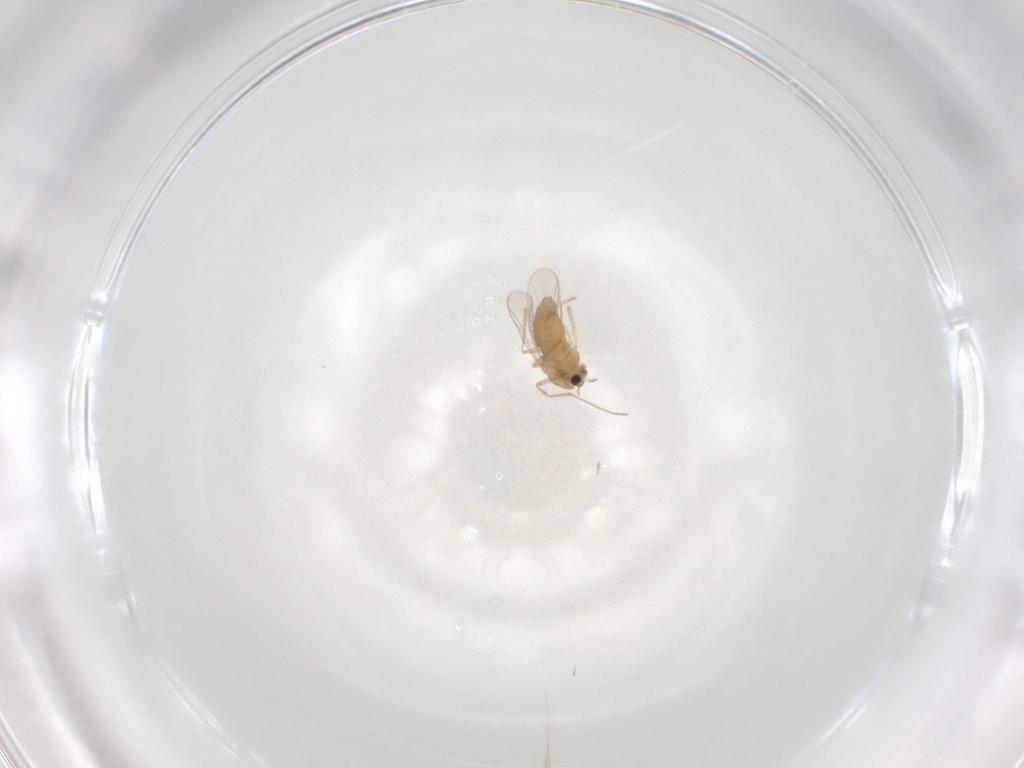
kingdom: Animalia
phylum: Arthropoda
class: Insecta
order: Diptera
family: Chironomidae
